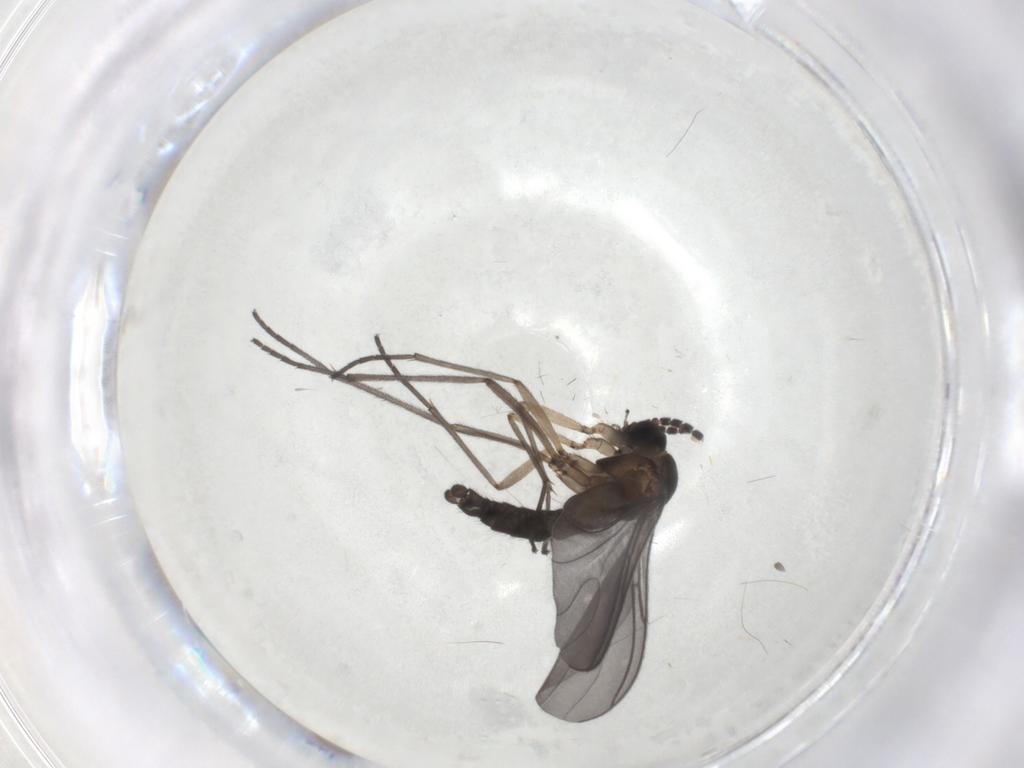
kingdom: Animalia
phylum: Arthropoda
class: Insecta
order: Diptera
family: Sciaridae
